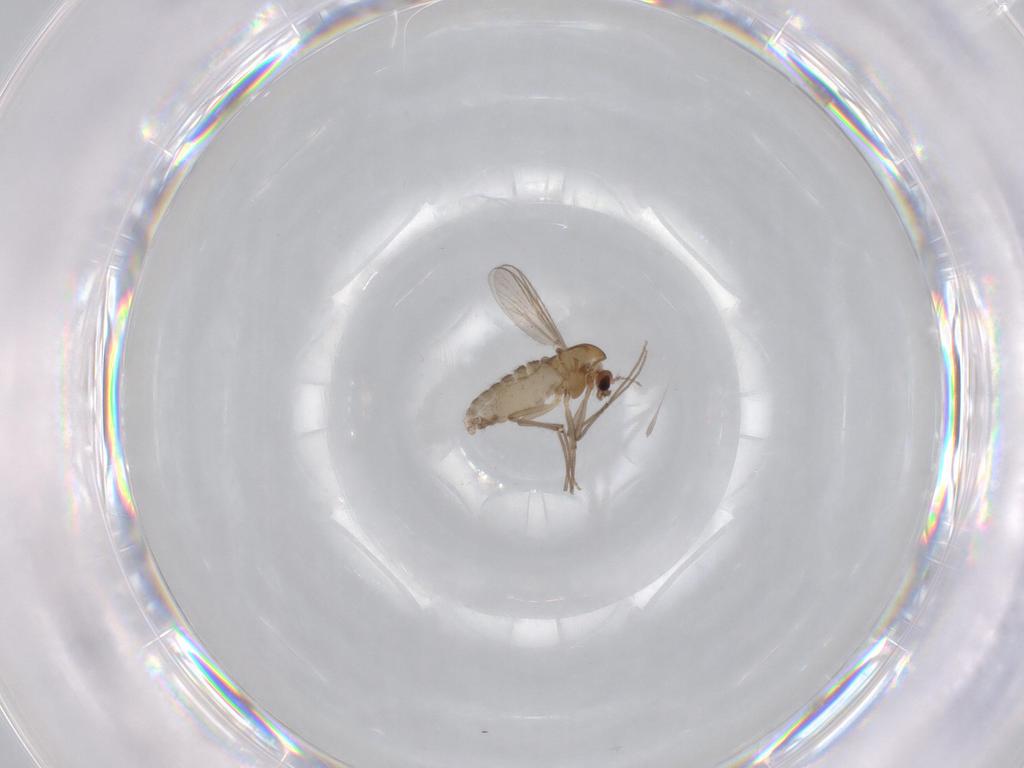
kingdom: Animalia
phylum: Arthropoda
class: Insecta
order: Diptera
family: Chironomidae
